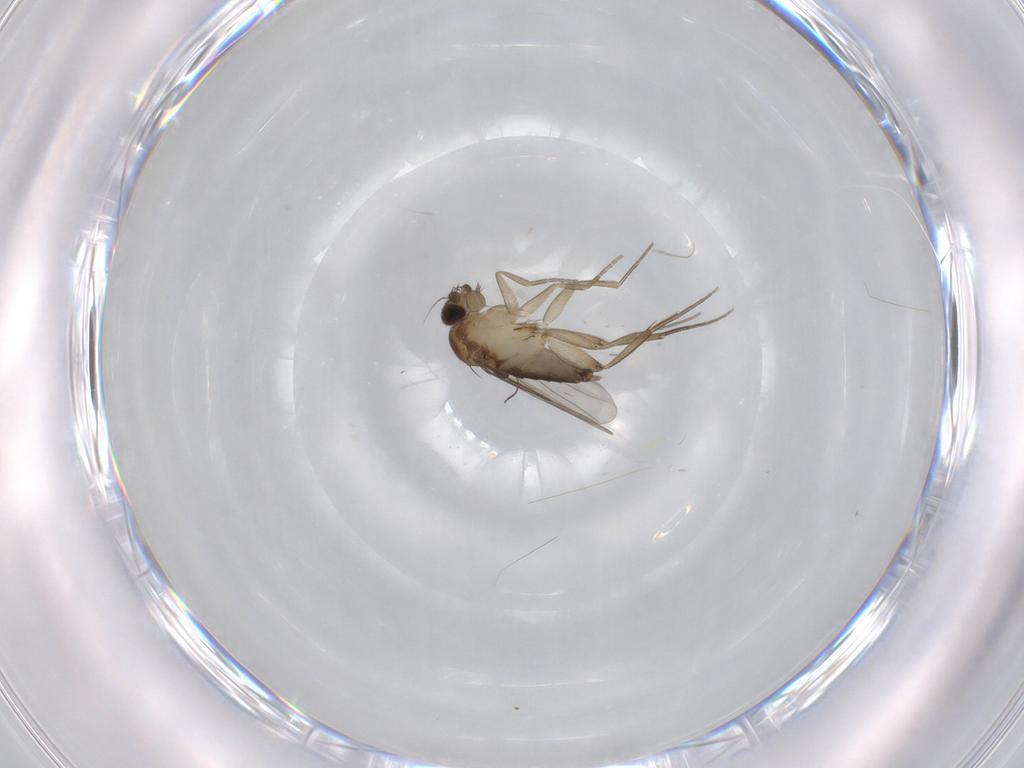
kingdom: Animalia
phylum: Arthropoda
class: Insecta
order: Diptera
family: Phoridae
